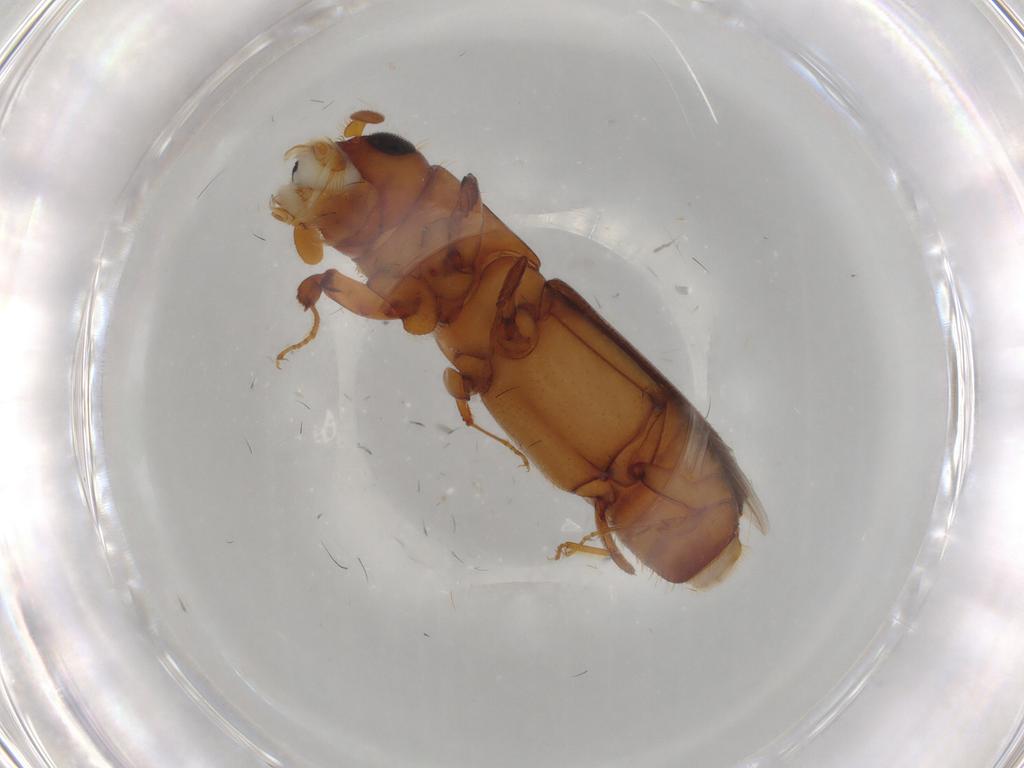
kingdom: Animalia
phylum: Arthropoda
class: Insecta
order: Coleoptera
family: Curculionidae
